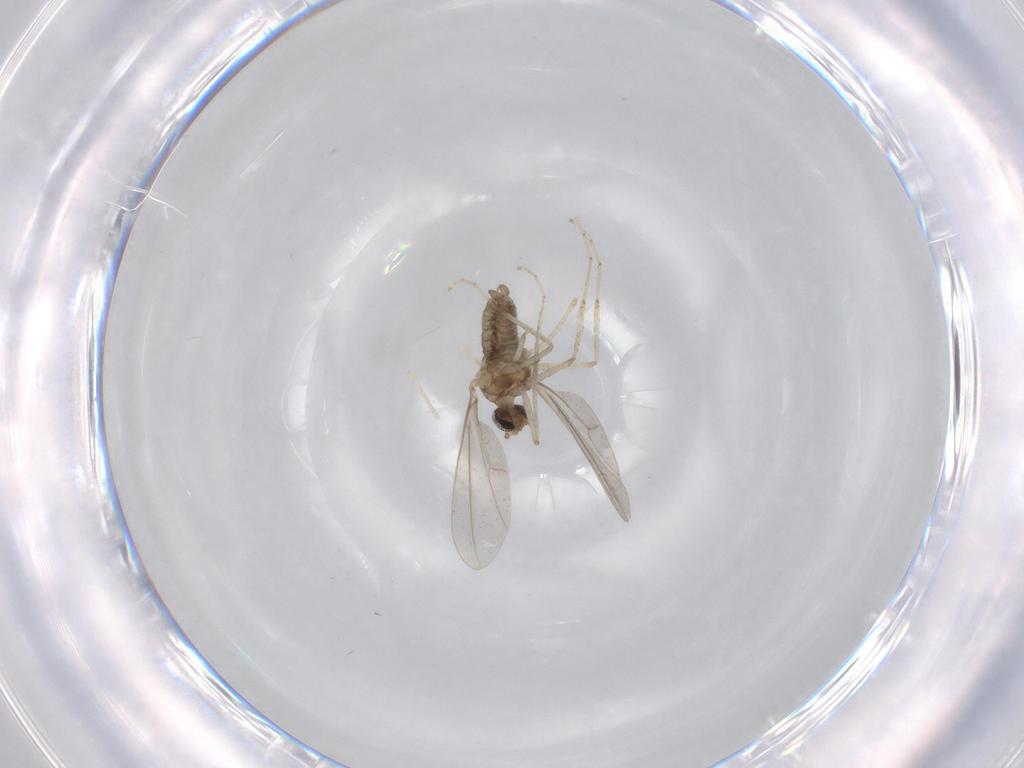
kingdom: Animalia
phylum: Arthropoda
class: Insecta
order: Diptera
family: Cecidomyiidae
